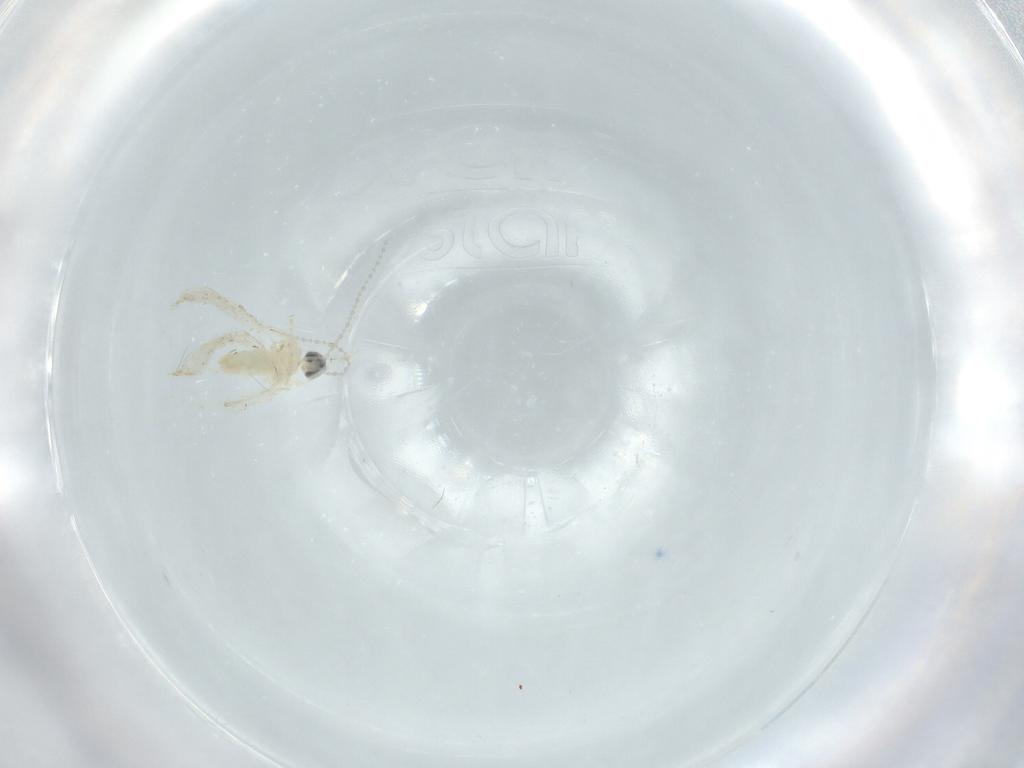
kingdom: Animalia
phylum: Arthropoda
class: Insecta
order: Diptera
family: Cecidomyiidae
